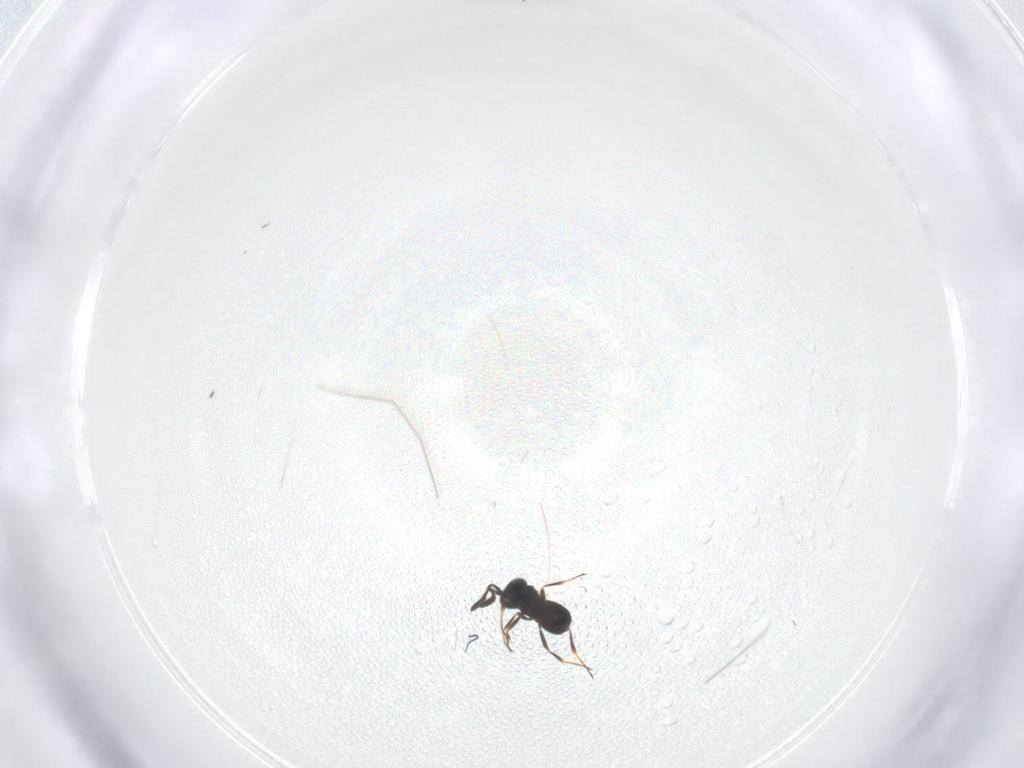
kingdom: Animalia
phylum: Arthropoda
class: Insecta
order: Hymenoptera
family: Scelionidae
